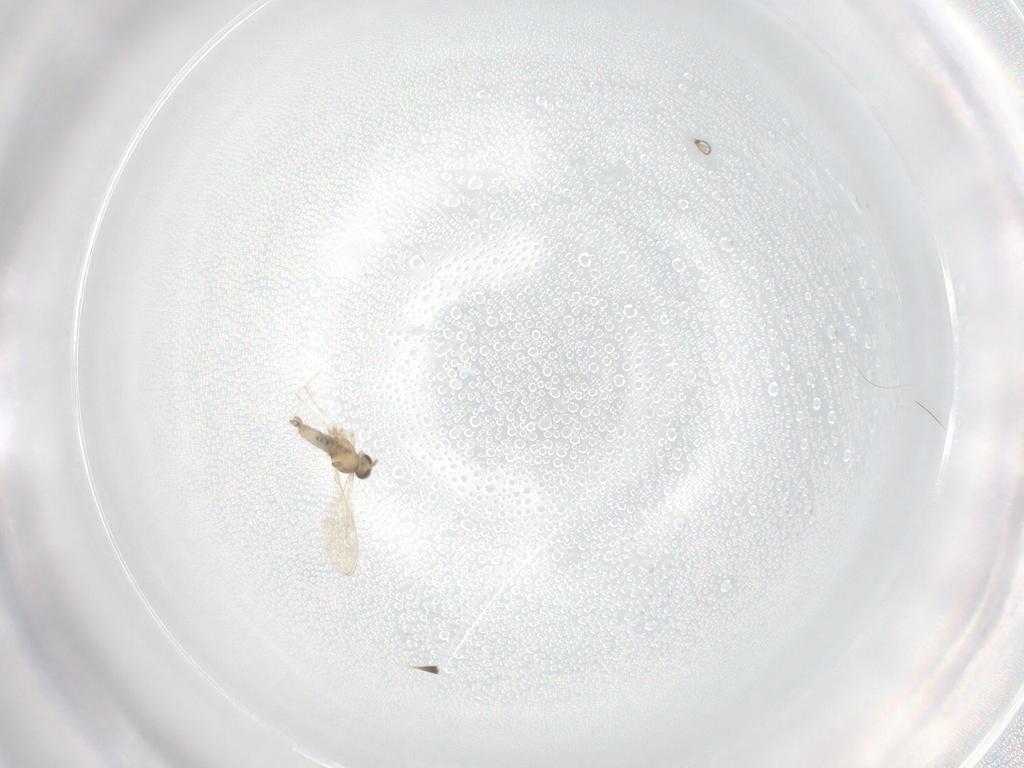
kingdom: Animalia
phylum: Arthropoda
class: Insecta
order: Diptera
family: Cecidomyiidae
